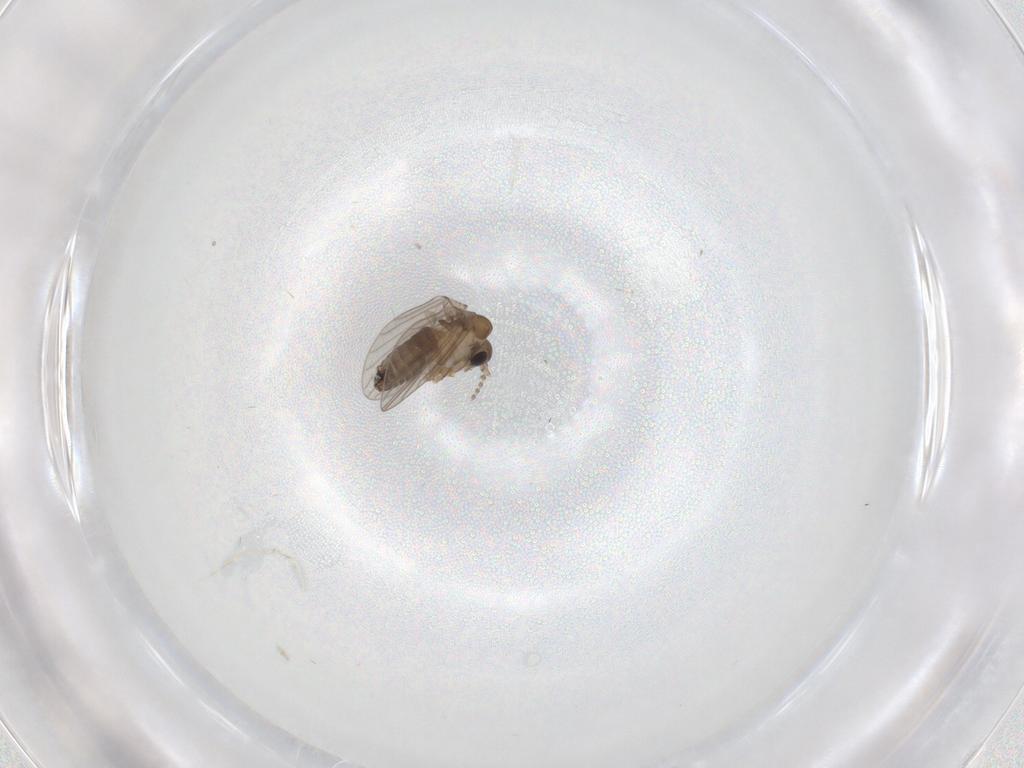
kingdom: Animalia
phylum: Arthropoda
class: Insecta
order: Diptera
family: Cecidomyiidae
